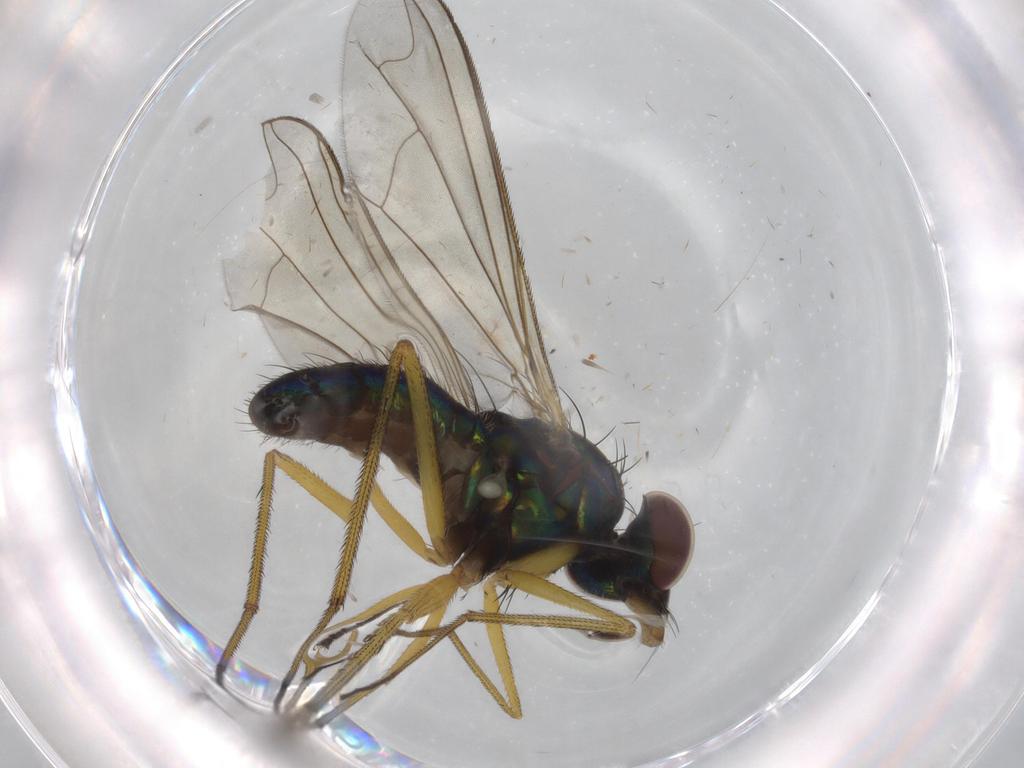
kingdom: Animalia
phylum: Arthropoda
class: Insecta
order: Diptera
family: Dolichopodidae
